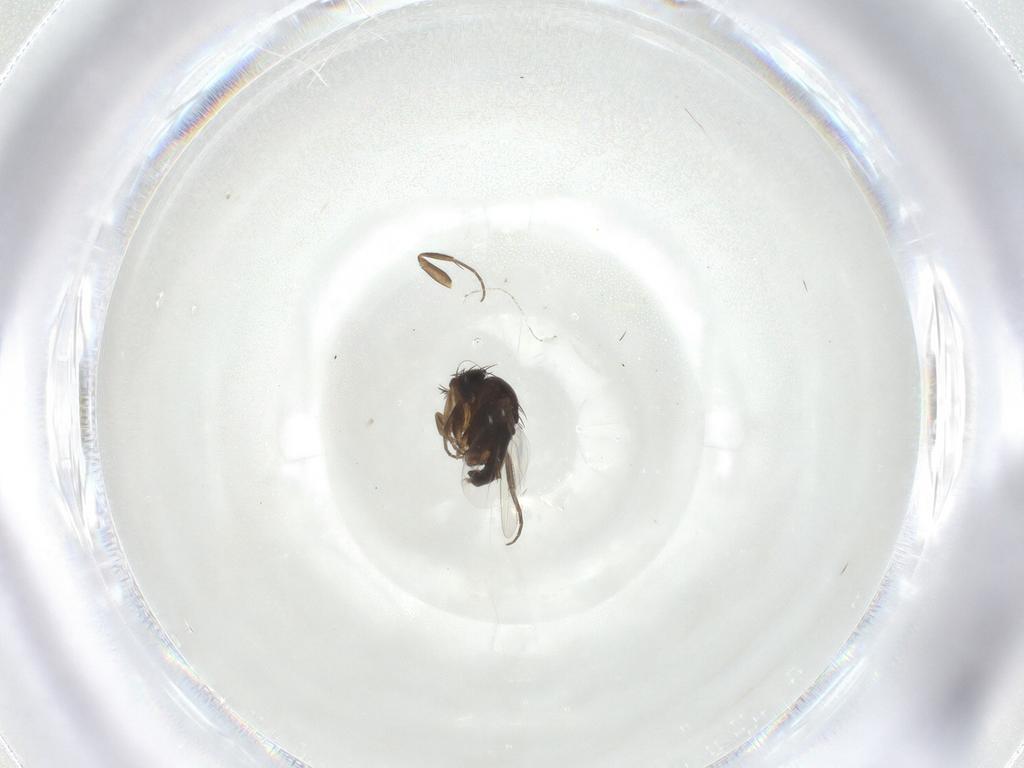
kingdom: Animalia
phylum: Arthropoda
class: Insecta
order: Diptera
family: Phoridae
